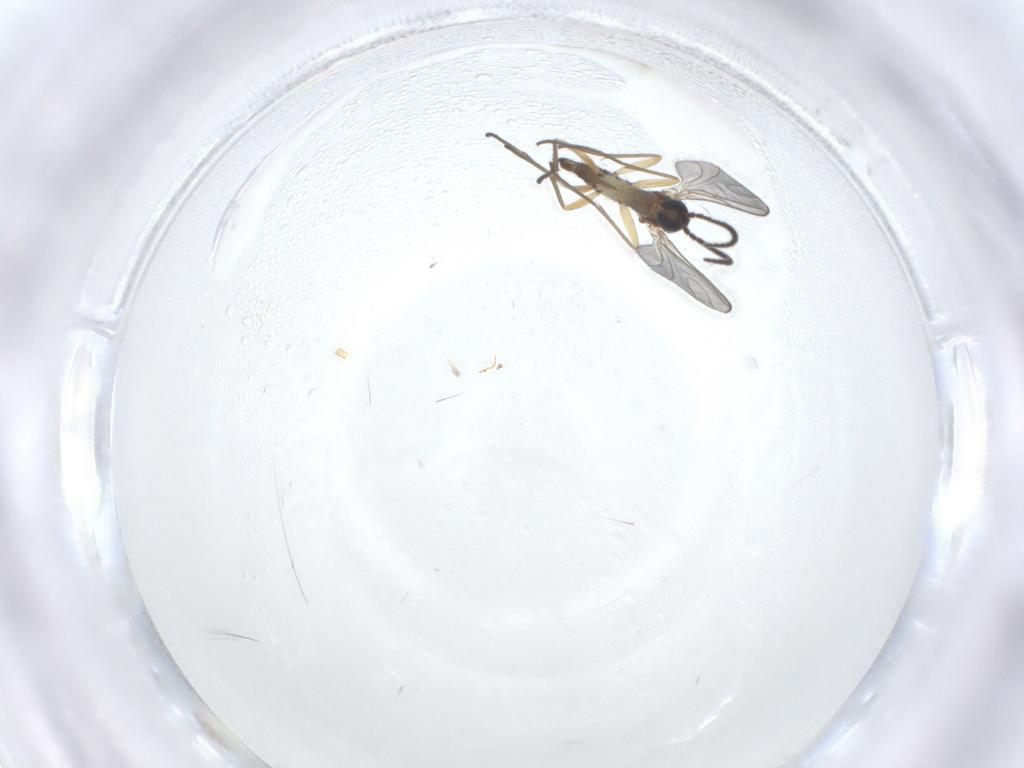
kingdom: Animalia
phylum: Arthropoda
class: Insecta
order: Diptera
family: Sciaridae
